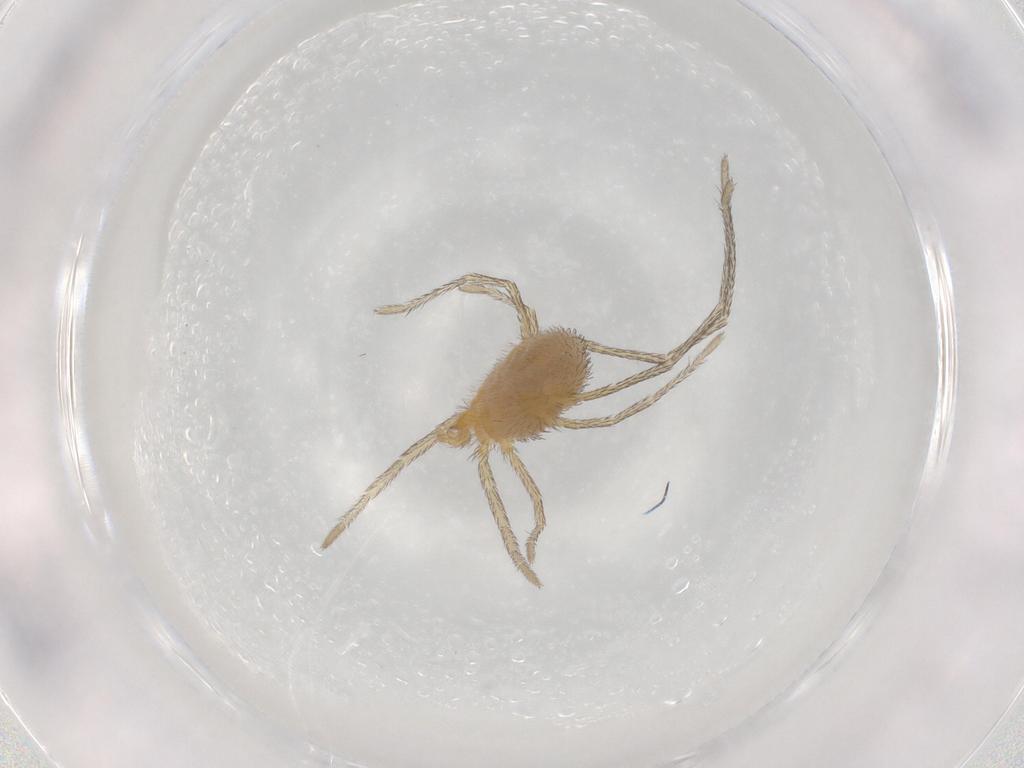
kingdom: Animalia
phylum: Arthropoda
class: Arachnida
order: Trombidiformes
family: Erythraeidae
